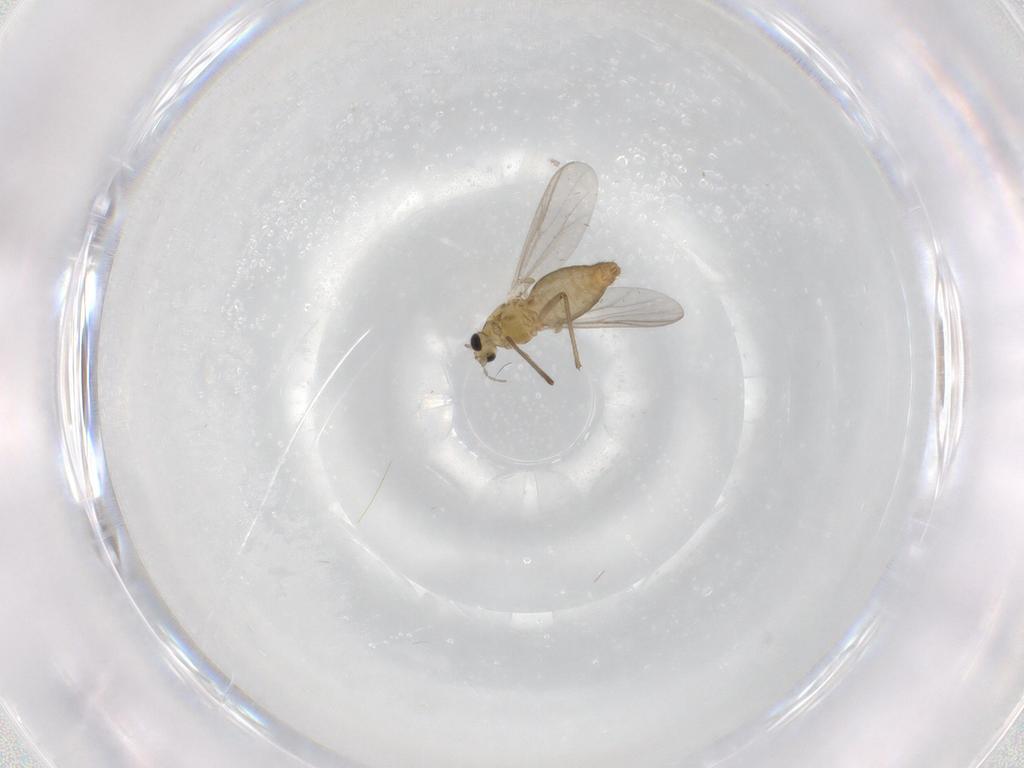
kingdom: Animalia
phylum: Arthropoda
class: Insecta
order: Diptera
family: Chironomidae
